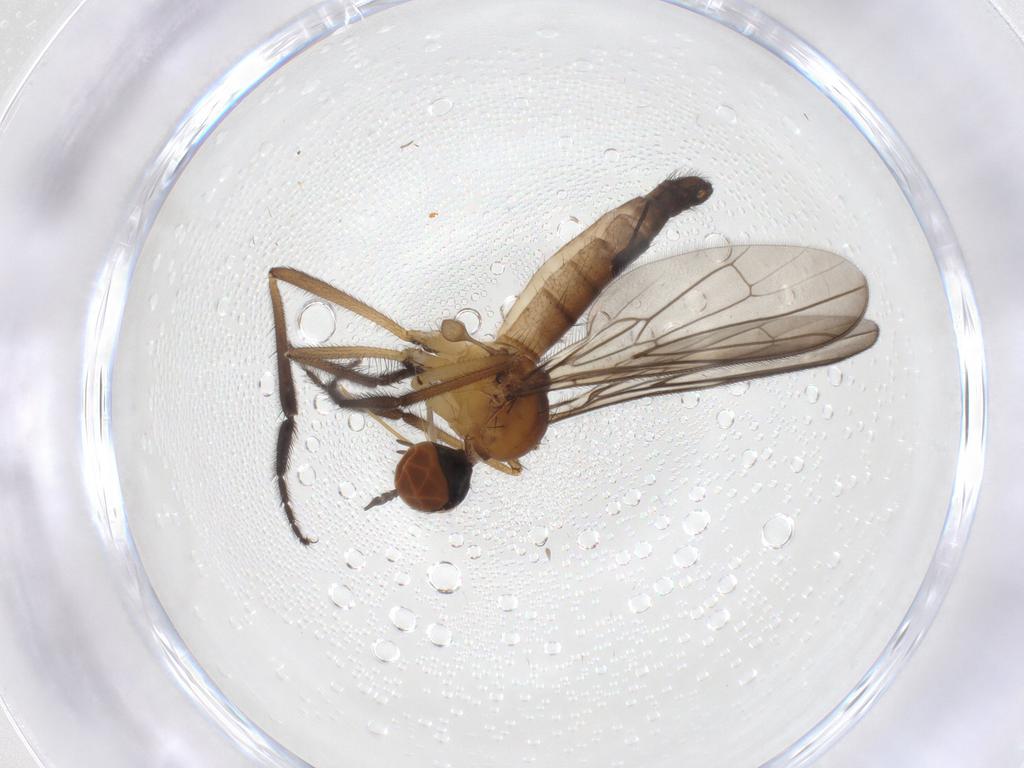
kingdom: Animalia
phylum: Arthropoda
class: Insecta
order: Diptera
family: Empididae
